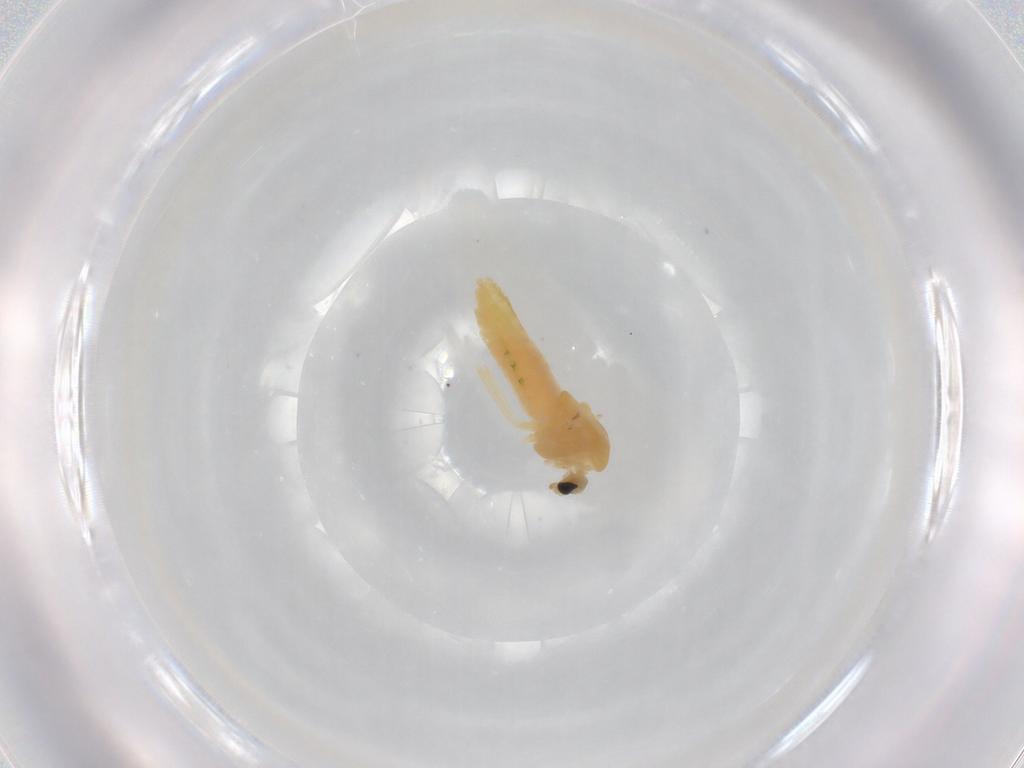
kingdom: Animalia
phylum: Arthropoda
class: Insecta
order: Diptera
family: Chironomidae
